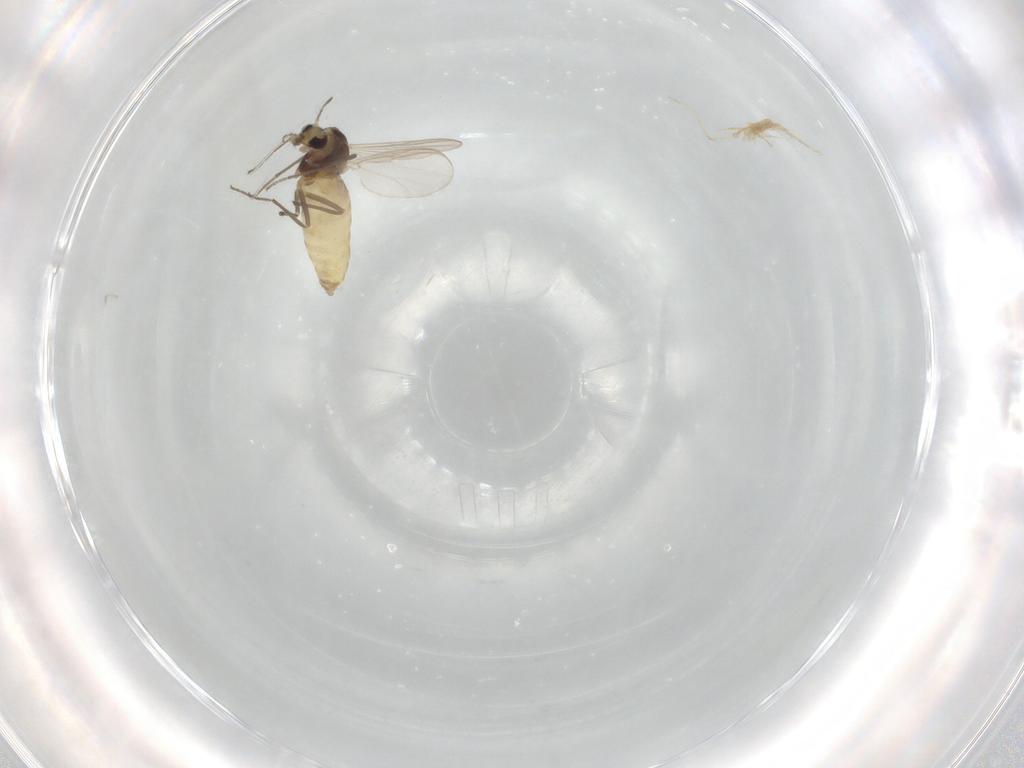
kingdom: Animalia
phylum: Arthropoda
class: Insecta
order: Diptera
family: Chironomidae
